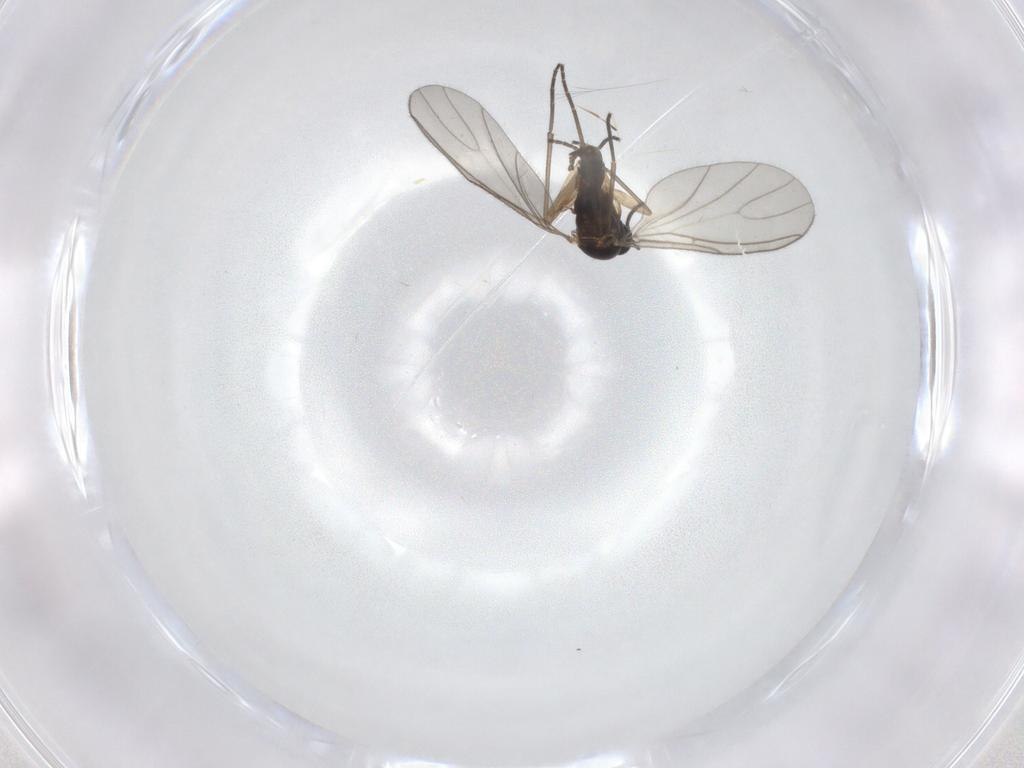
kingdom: Animalia
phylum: Arthropoda
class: Insecta
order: Diptera
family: Sciaridae
